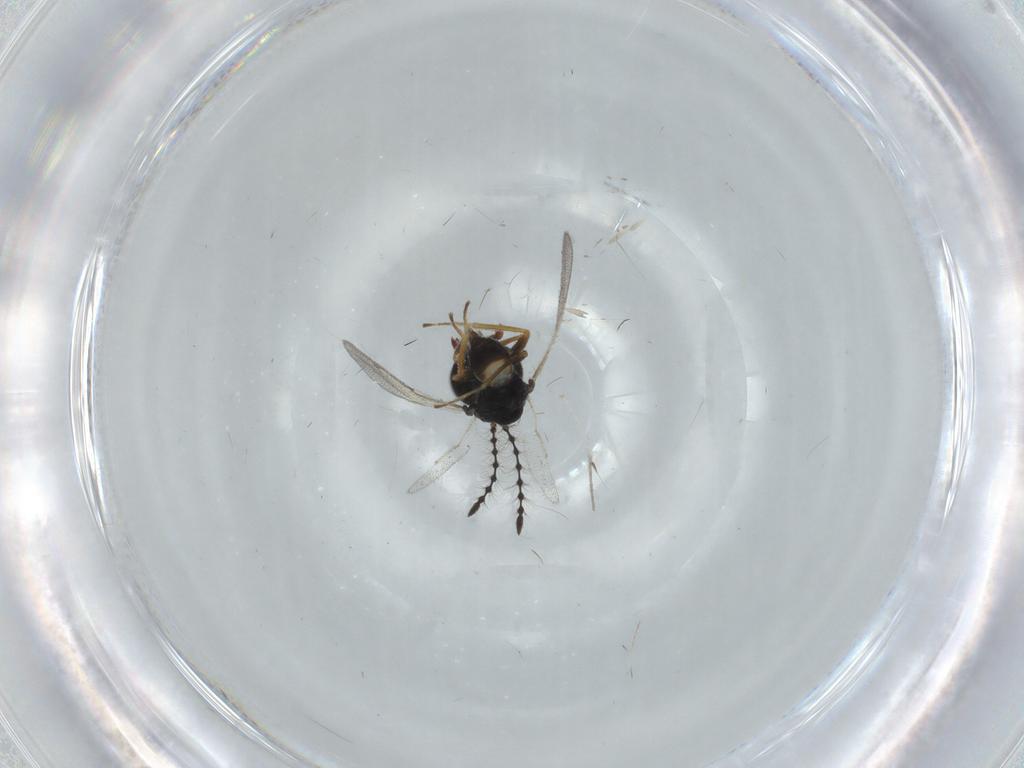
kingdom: Animalia
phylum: Arthropoda
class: Insecta
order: Hymenoptera
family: Pteromalidae
